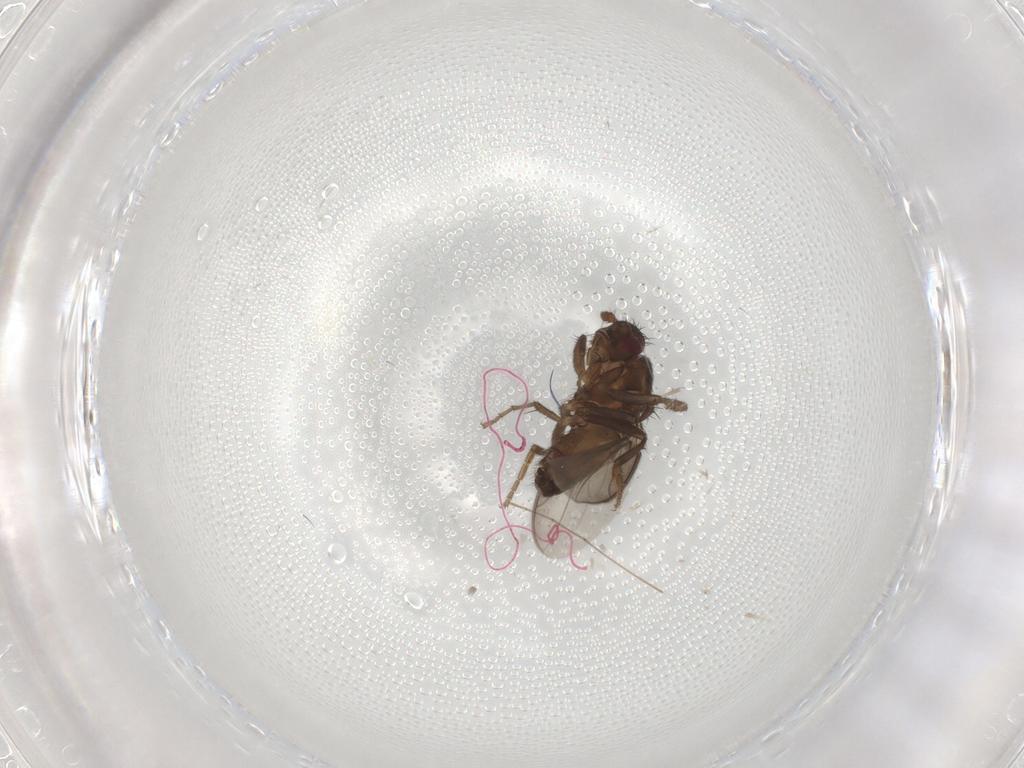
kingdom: Animalia
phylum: Arthropoda
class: Insecta
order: Diptera
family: Sphaeroceridae
